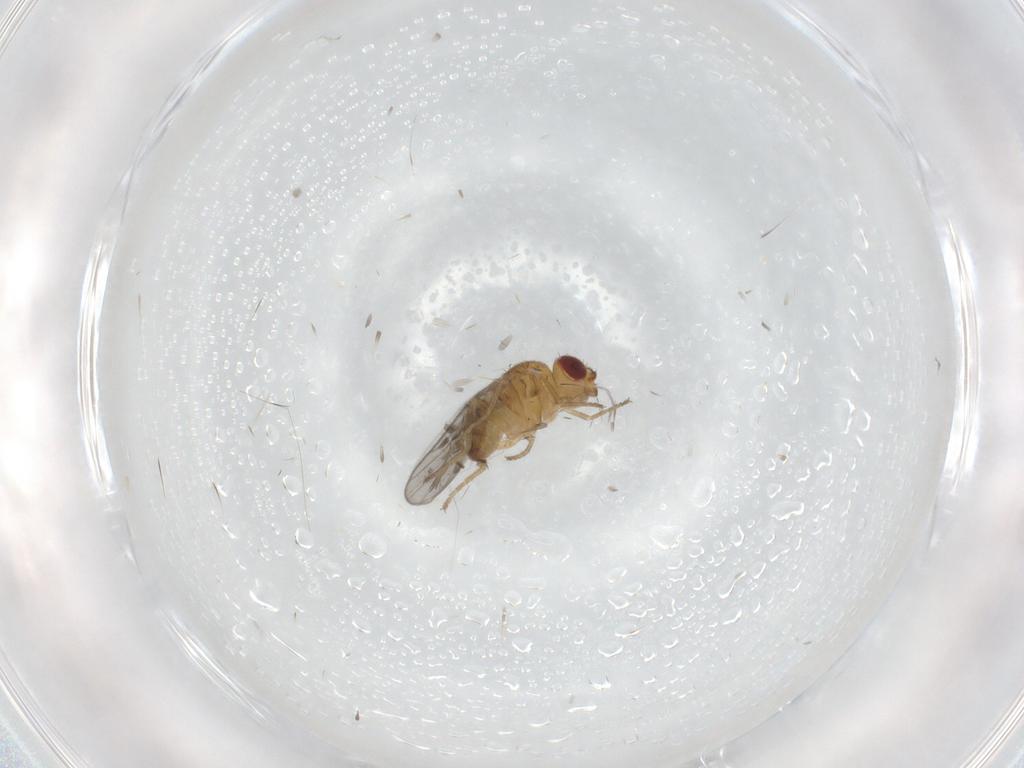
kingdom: Animalia
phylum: Arthropoda
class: Insecta
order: Diptera
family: Chloropidae
